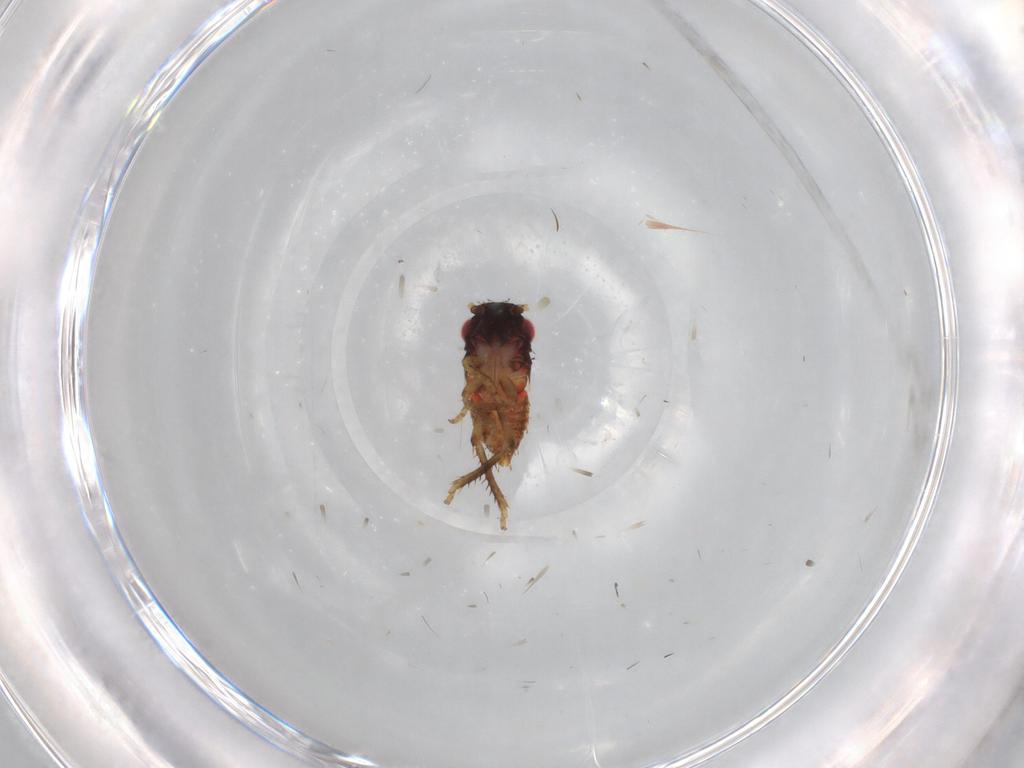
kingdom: Animalia
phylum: Arthropoda
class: Insecta
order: Hemiptera
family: Cicadellidae
